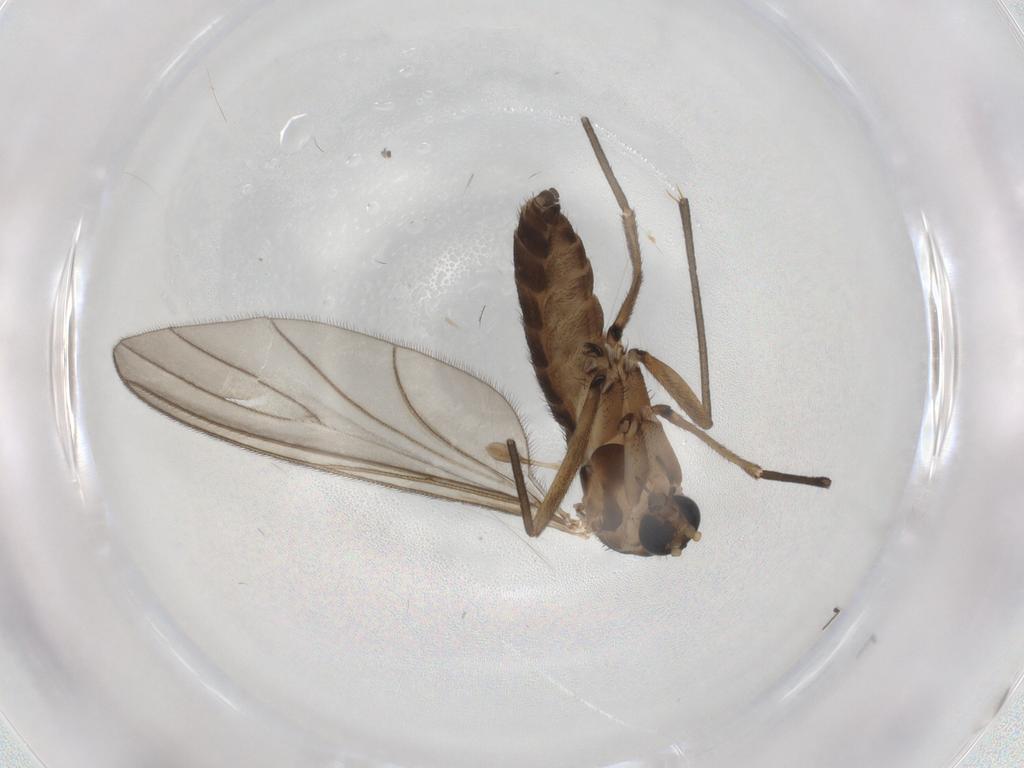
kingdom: Animalia
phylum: Arthropoda
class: Insecta
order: Diptera
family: Sciaridae
